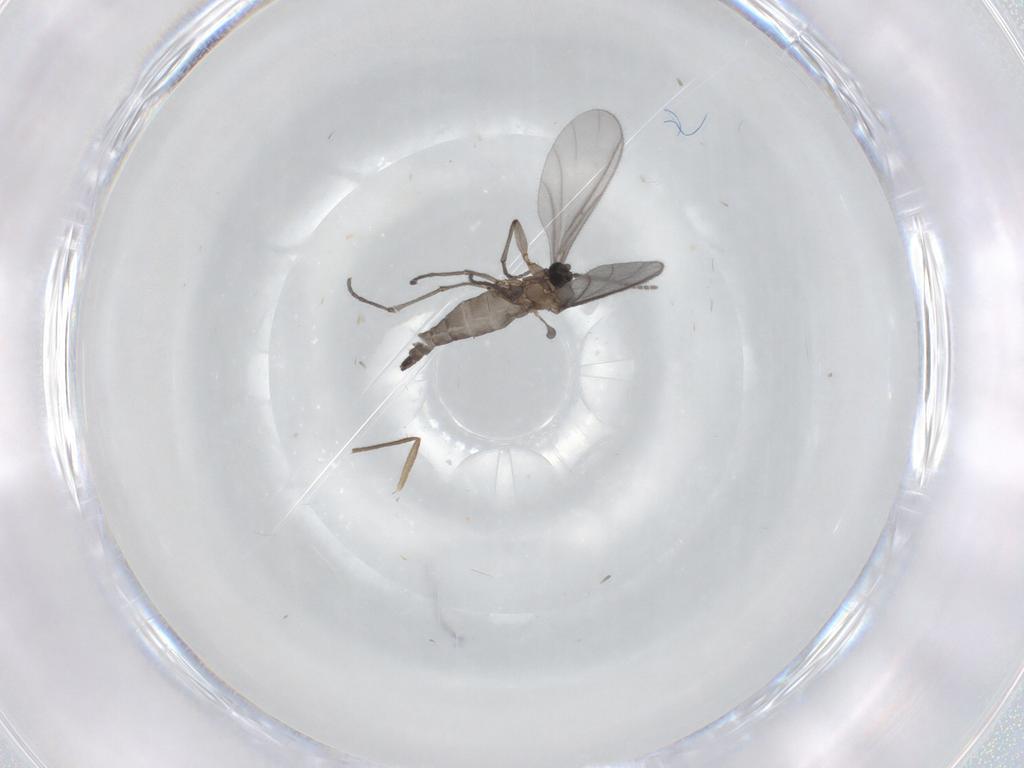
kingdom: Animalia
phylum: Arthropoda
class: Insecta
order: Diptera
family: Sciaridae
